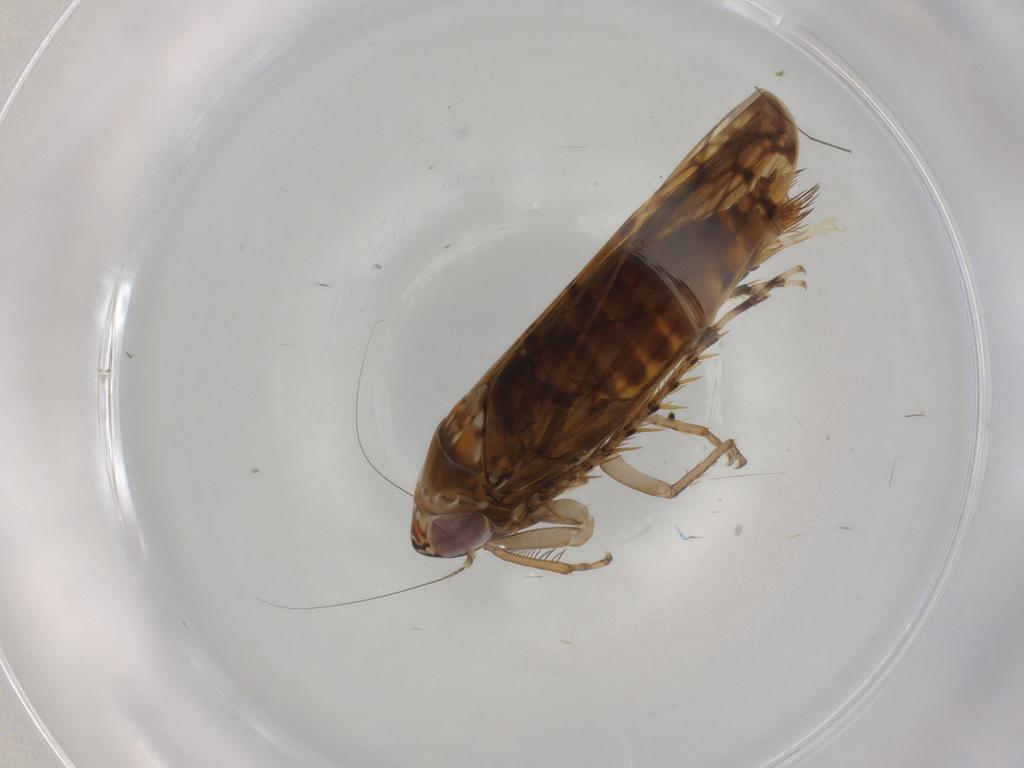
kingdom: Animalia
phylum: Arthropoda
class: Insecta
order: Hemiptera
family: Cicadellidae
